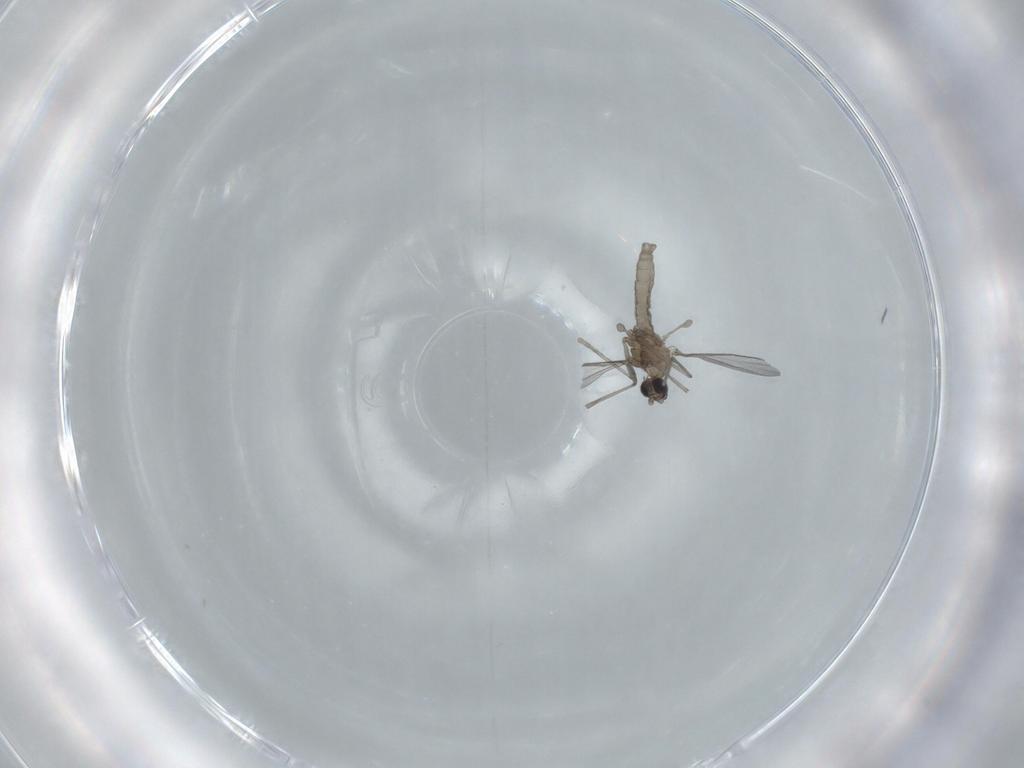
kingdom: Animalia
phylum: Arthropoda
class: Insecta
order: Diptera
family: Cecidomyiidae
